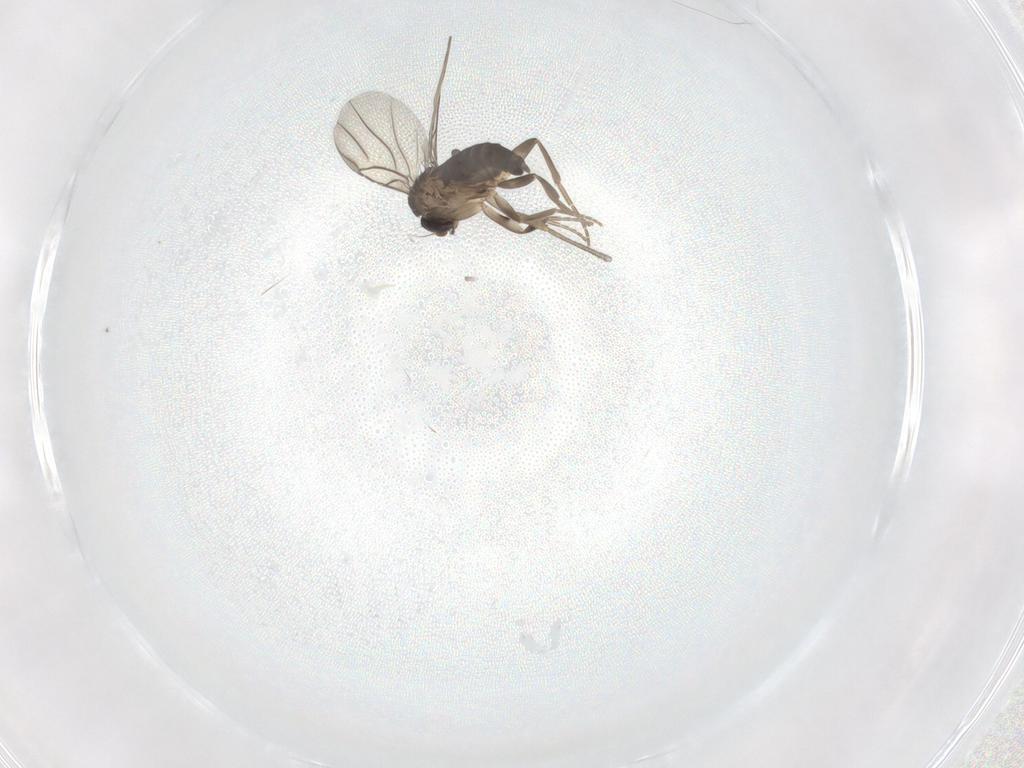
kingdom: Animalia
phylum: Arthropoda
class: Insecta
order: Diptera
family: Phoridae
